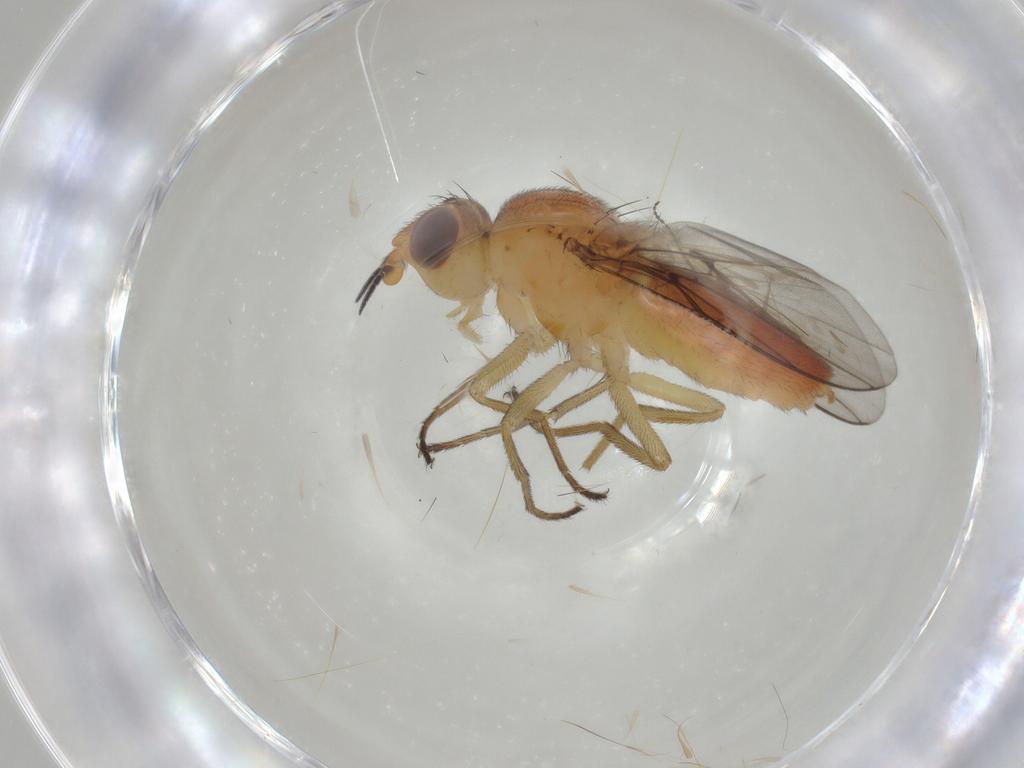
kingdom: Animalia
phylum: Arthropoda
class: Insecta
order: Diptera
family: Chloropidae
